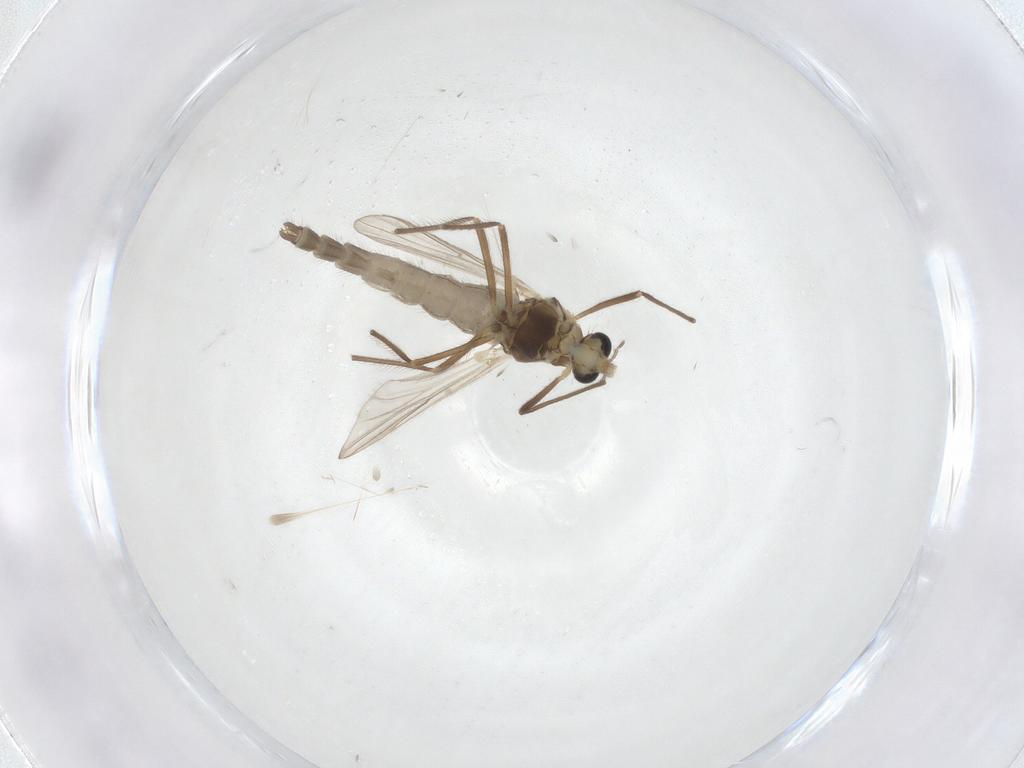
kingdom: Animalia
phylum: Arthropoda
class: Insecta
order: Diptera
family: Chironomidae
